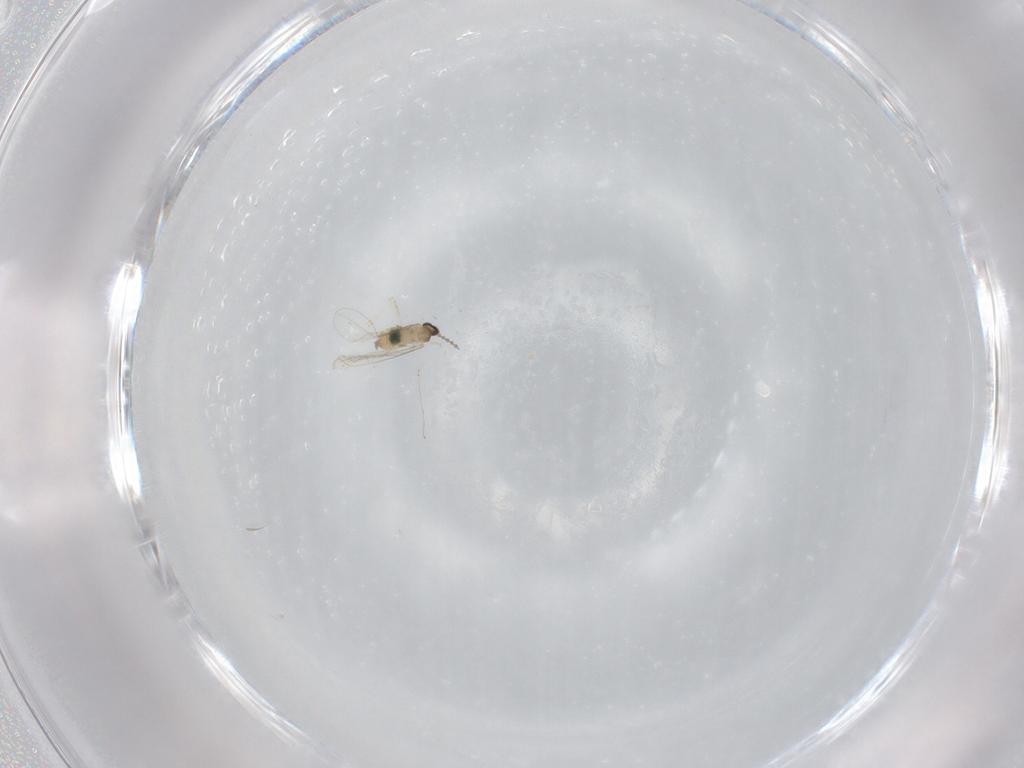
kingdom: Animalia
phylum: Arthropoda
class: Insecta
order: Diptera
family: Cecidomyiidae
